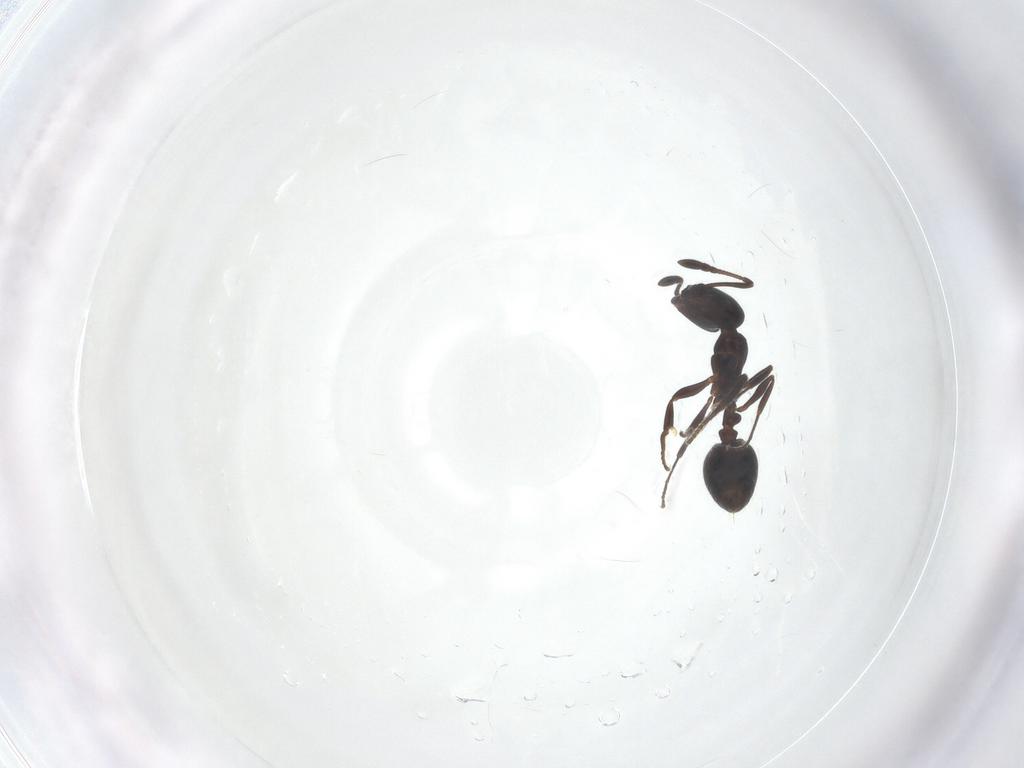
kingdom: Animalia
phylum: Arthropoda
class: Insecta
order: Hymenoptera
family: Formicidae
